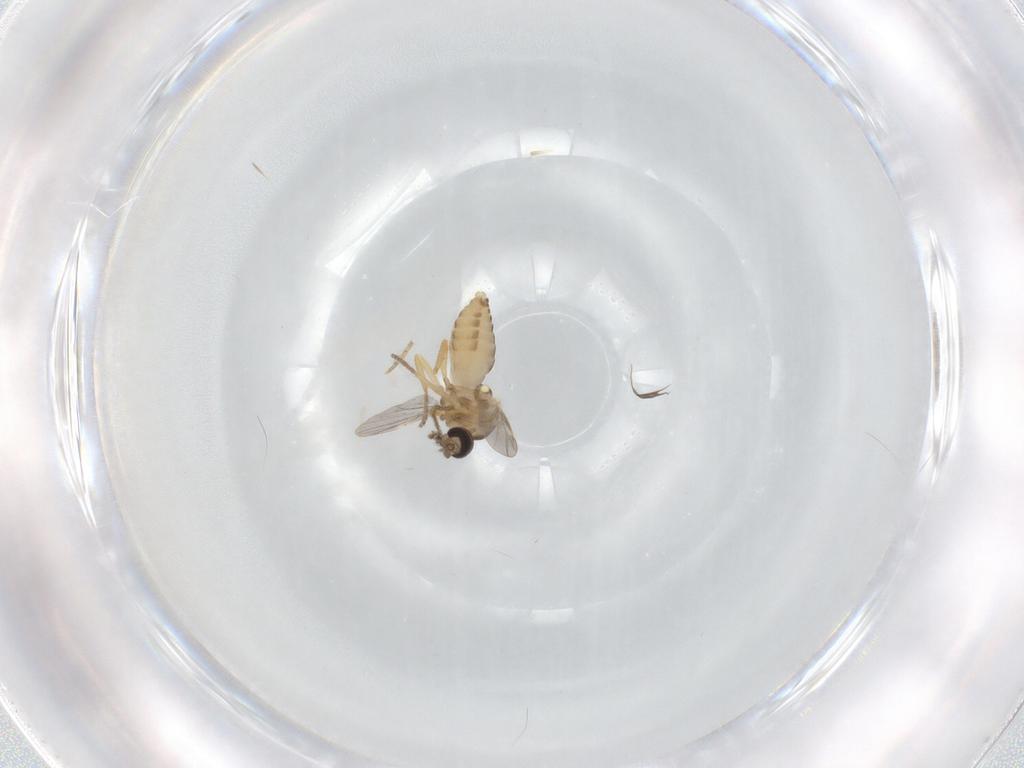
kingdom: Animalia
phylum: Arthropoda
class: Insecta
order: Diptera
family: Ceratopogonidae
